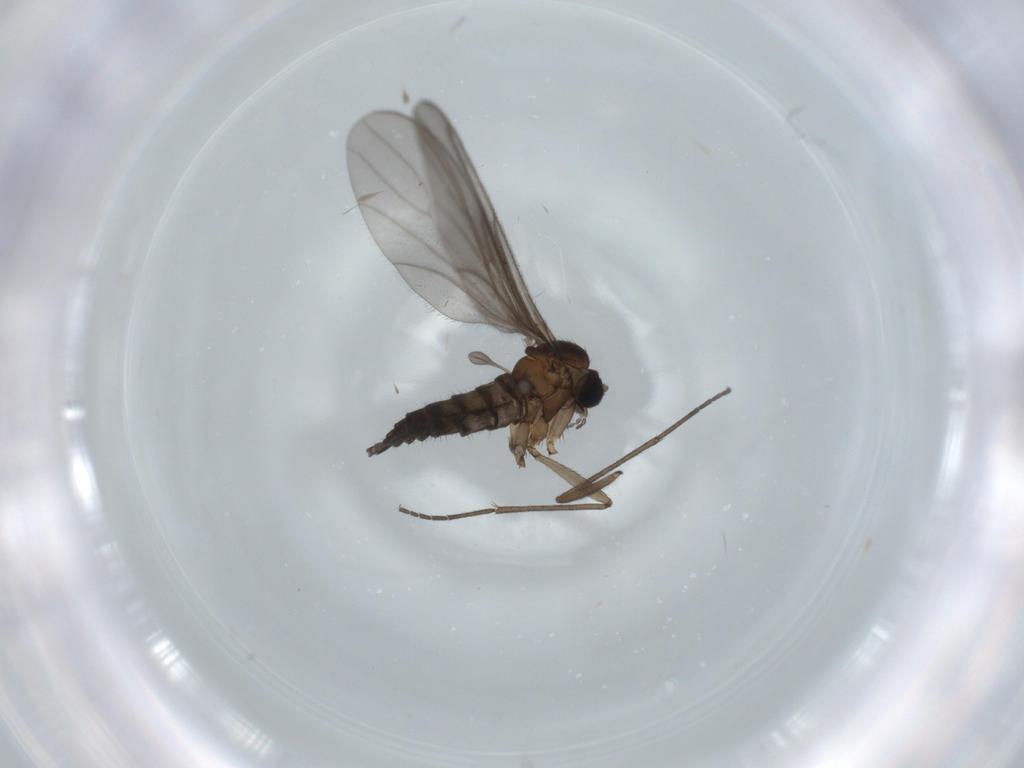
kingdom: Animalia
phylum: Arthropoda
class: Insecta
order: Diptera
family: Sciaridae
